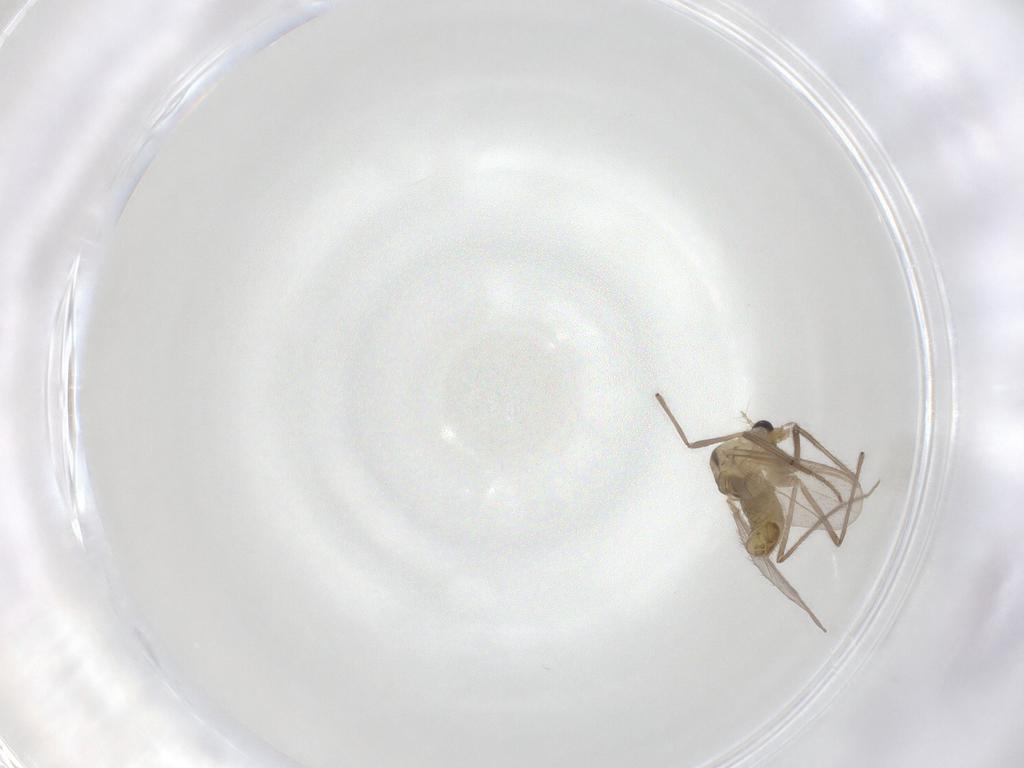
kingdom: Animalia
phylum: Arthropoda
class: Insecta
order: Diptera
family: Chironomidae
